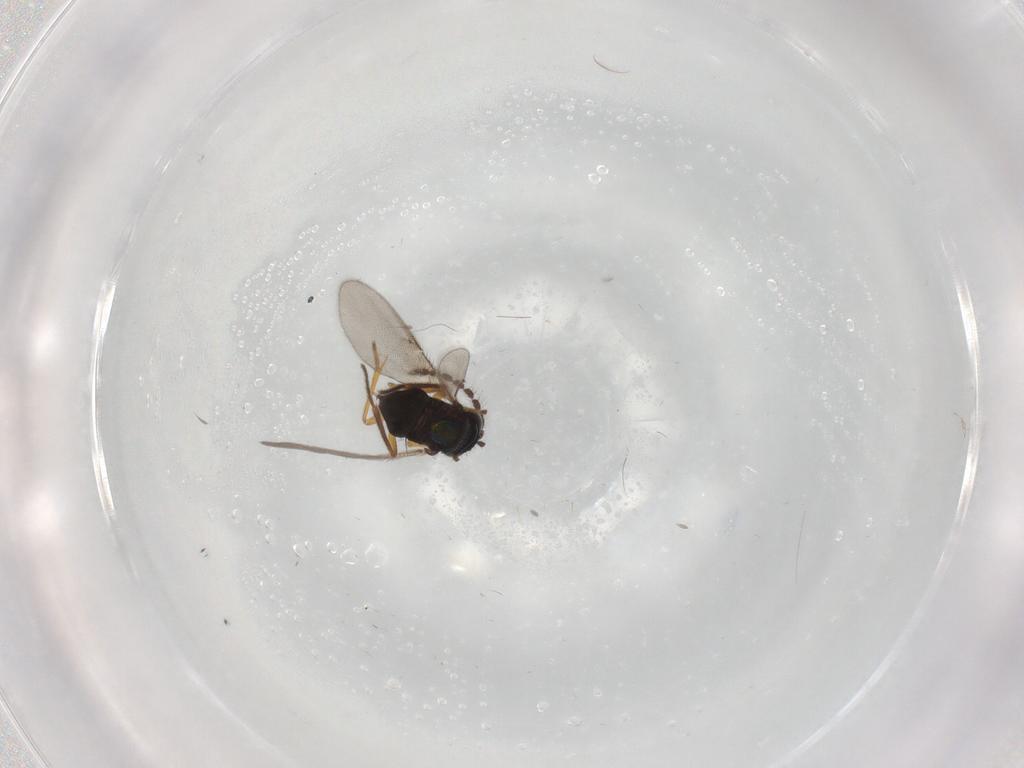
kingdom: Animalia
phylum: Arthropoda
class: Insecta
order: Hymenoptera
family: Encyrtidae
